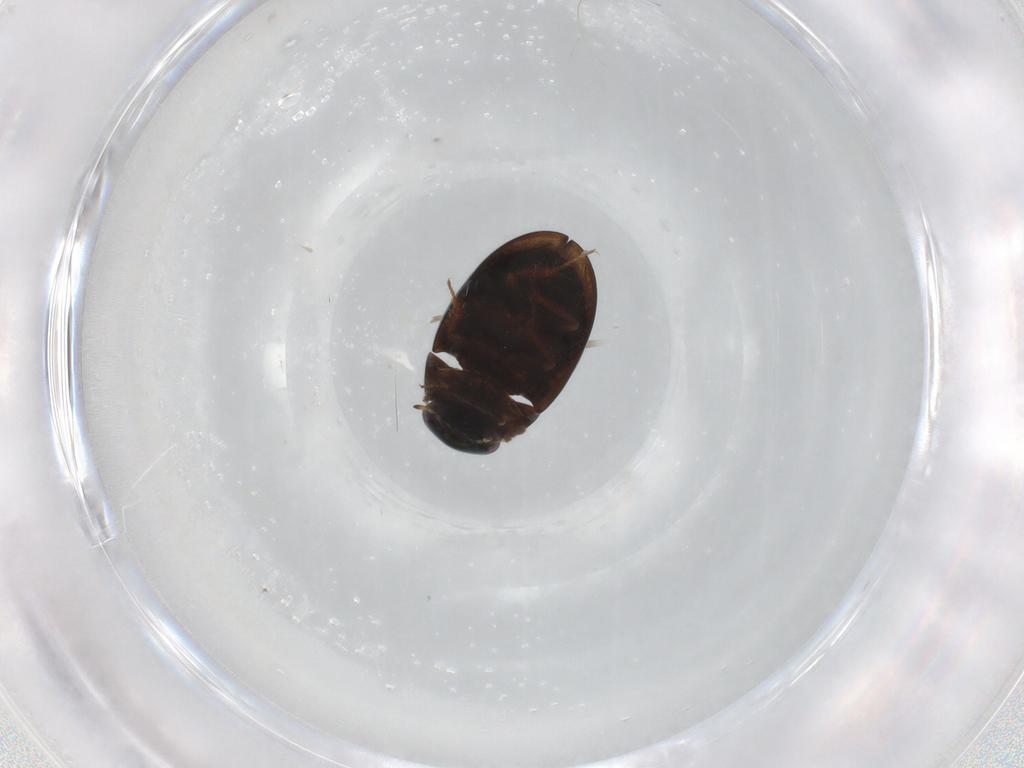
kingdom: Animalia
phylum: Arthropoda
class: Insecta
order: Coleoptera
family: Hydrophilidae
